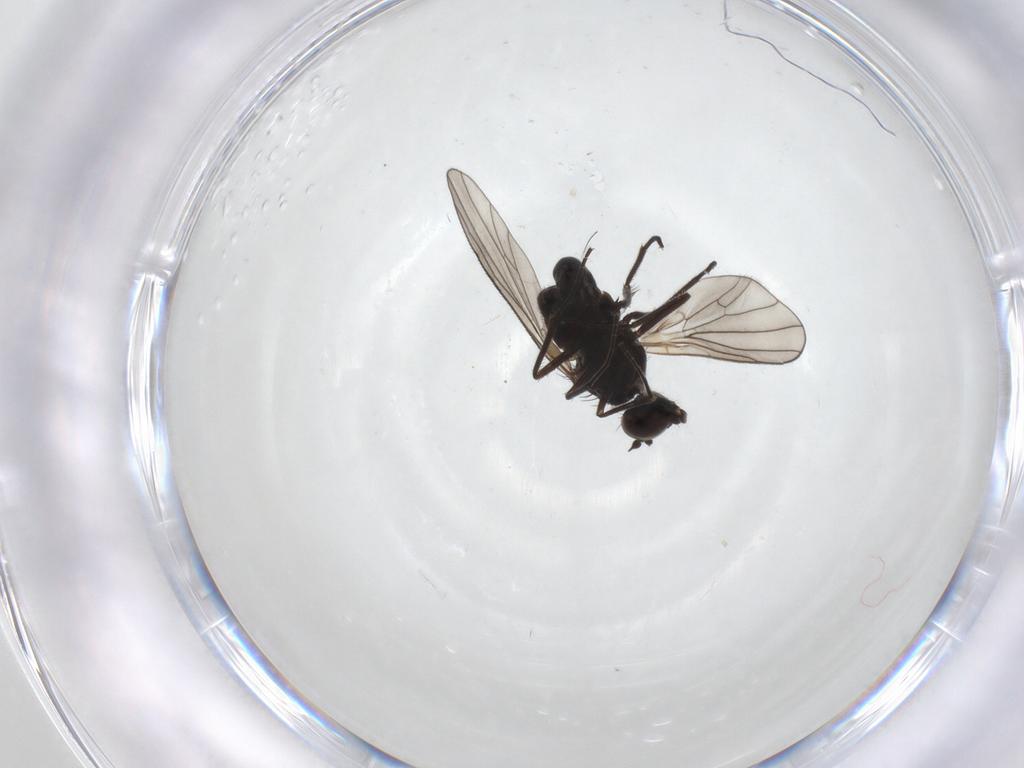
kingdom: Animalia
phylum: Arthropoda
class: Insecta
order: Diptera
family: Dolichopodidae
